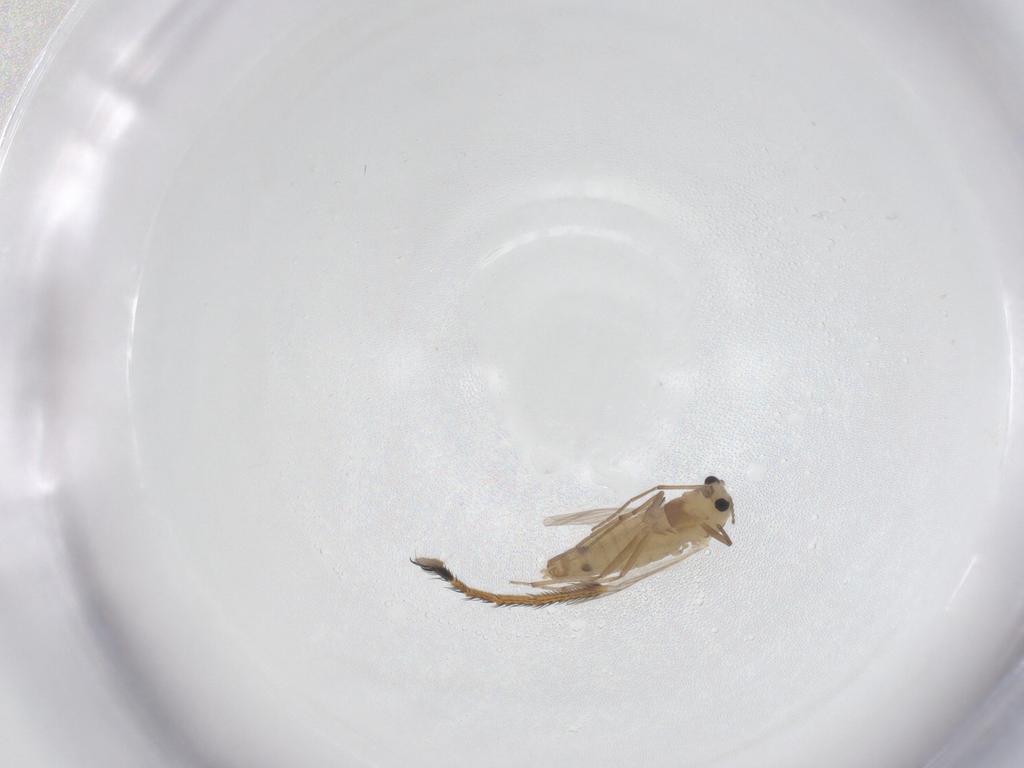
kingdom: Animalia
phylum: Arthropoda
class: Insecta
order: Diptera
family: Chironomidae
